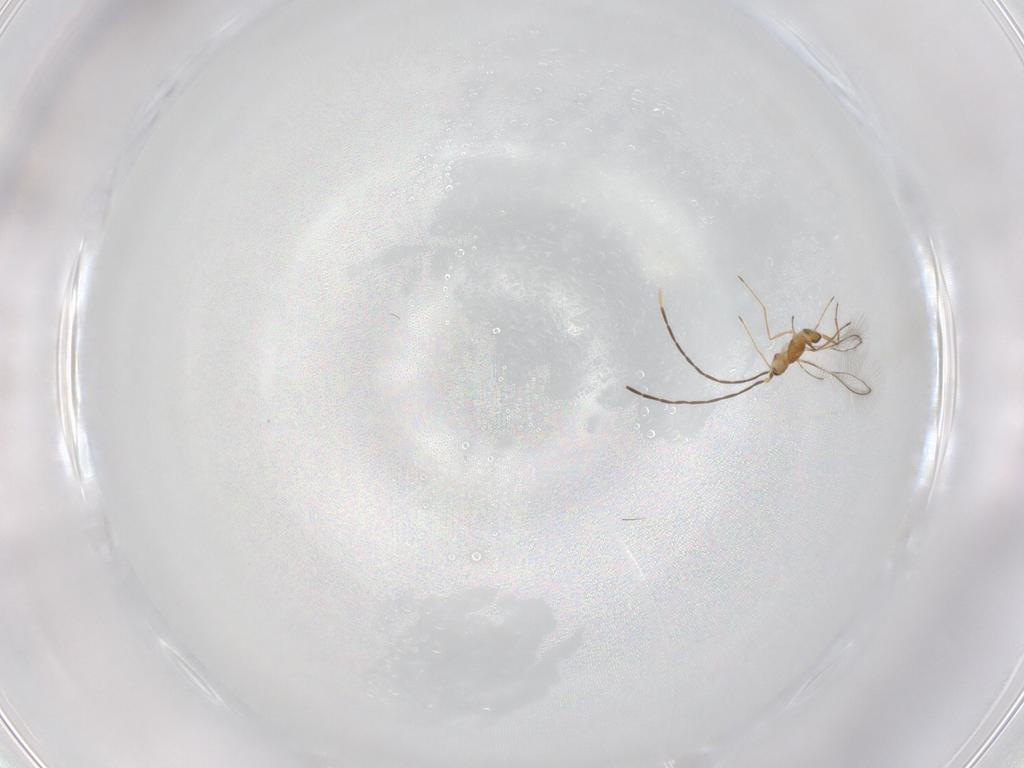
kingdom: Animalia
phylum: Arthropoda
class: Insecta
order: Hymenoptera
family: Mymaridae
